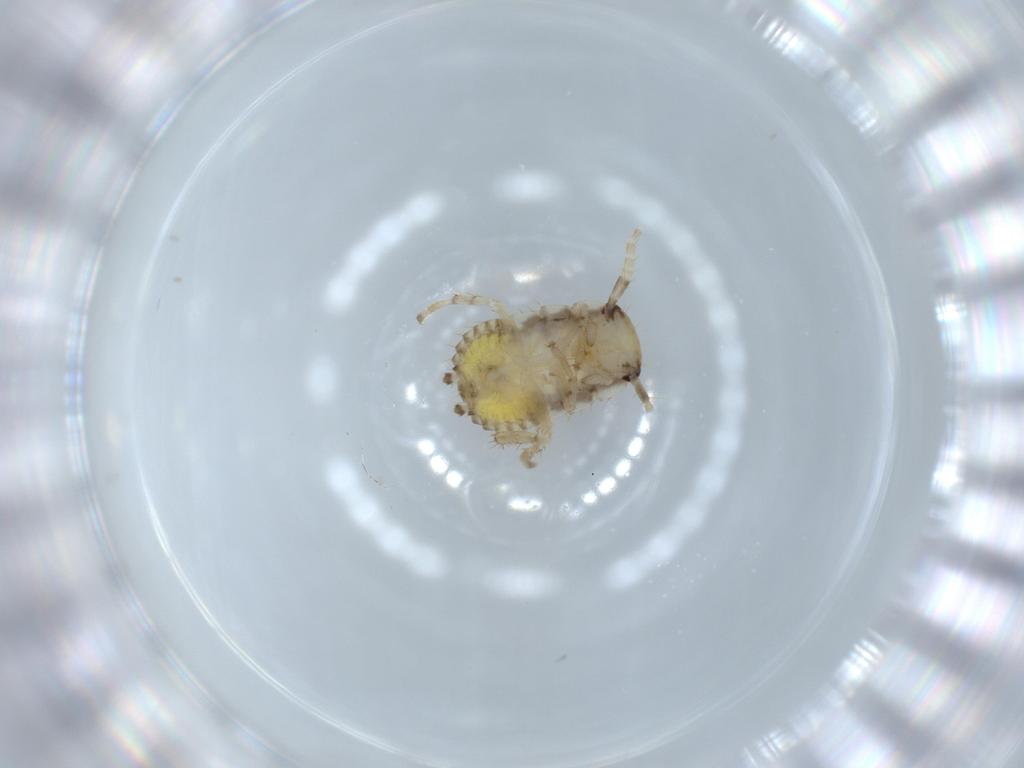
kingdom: Animalia
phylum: Arthropoda
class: Insecta
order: Blattodea
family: Ectobiidae
